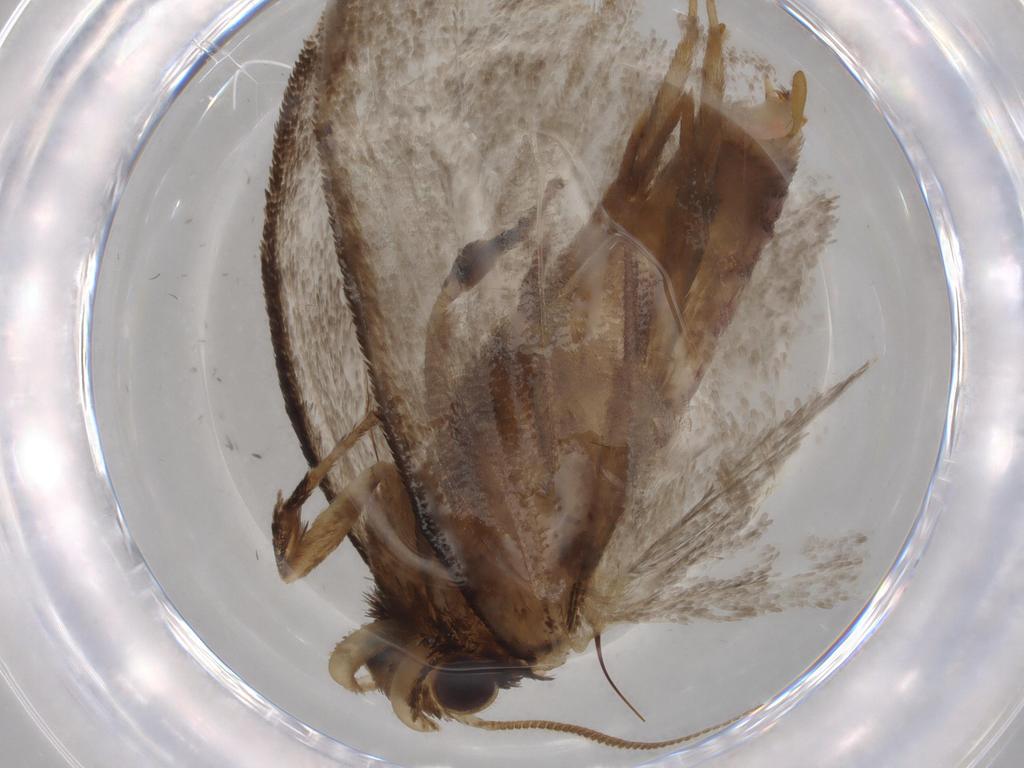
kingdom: Animalia
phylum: Arthropoda
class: Insecta
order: Lepidoptera
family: Tineidae
